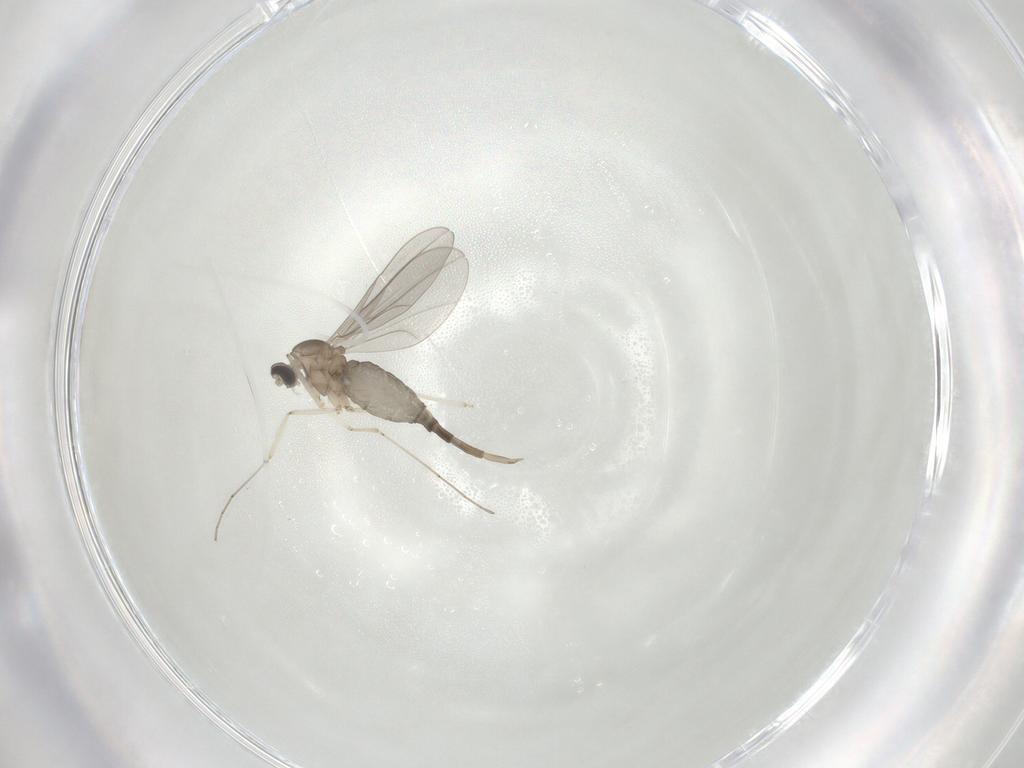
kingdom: Animalia
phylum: Arthropoda
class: Insecta
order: Diptera
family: Cecidomyiidae
